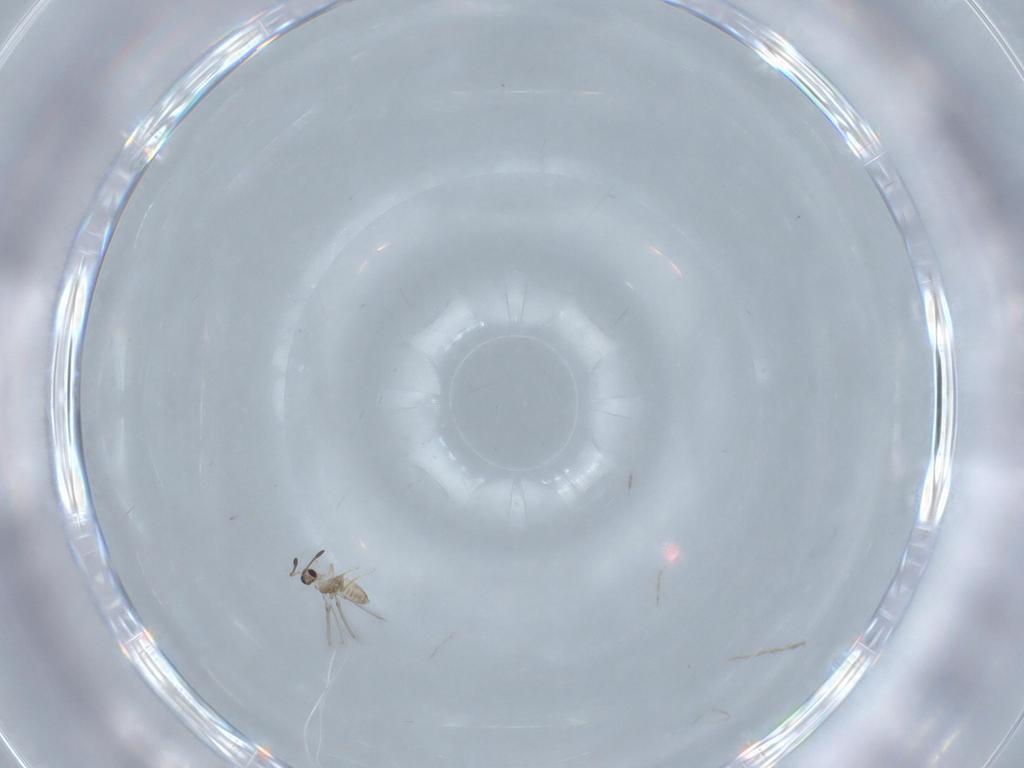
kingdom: Animalia
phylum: Arthropoda
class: Insecta
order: Hymenoptera
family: Mymaridae
